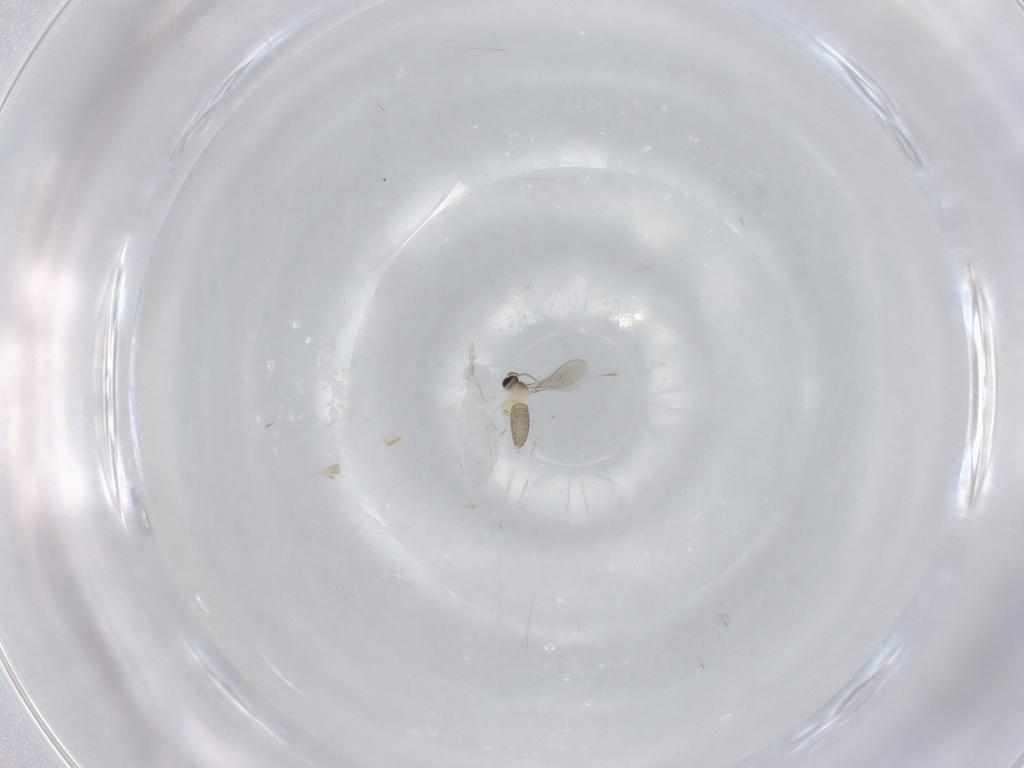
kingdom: Animalia
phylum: Arthropoda
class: Insecta
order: Diptera
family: Cecidomyiidae
